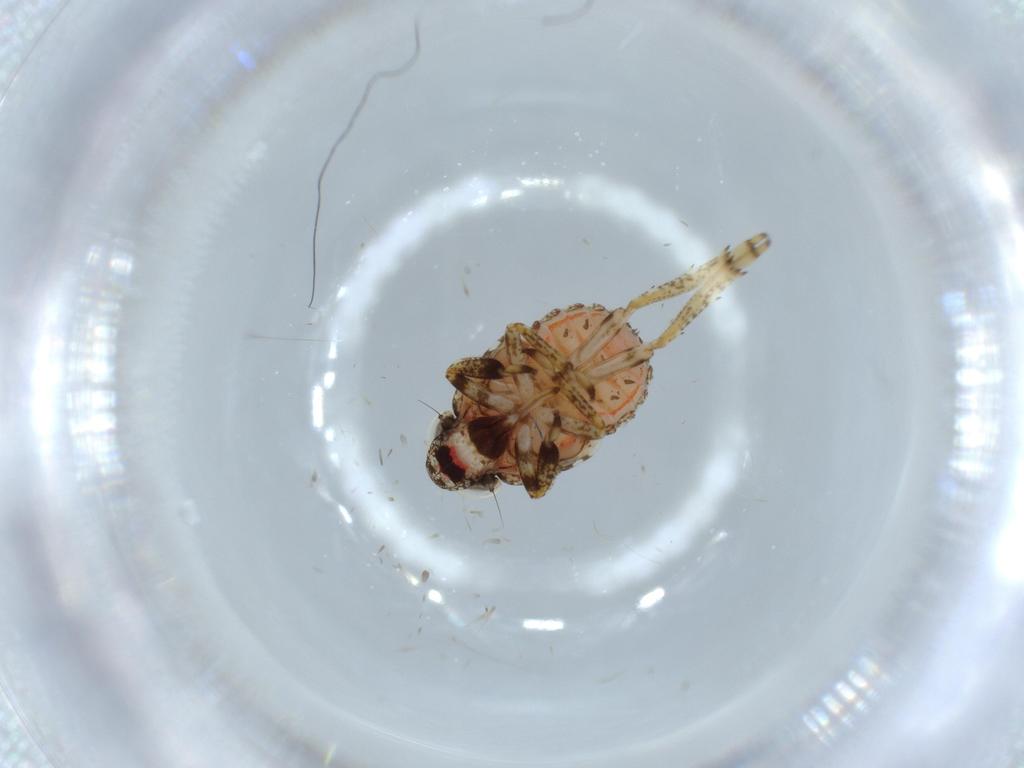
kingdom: Animalia
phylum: Arthropoda
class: Insecta
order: Hemiptera
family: Issidae
